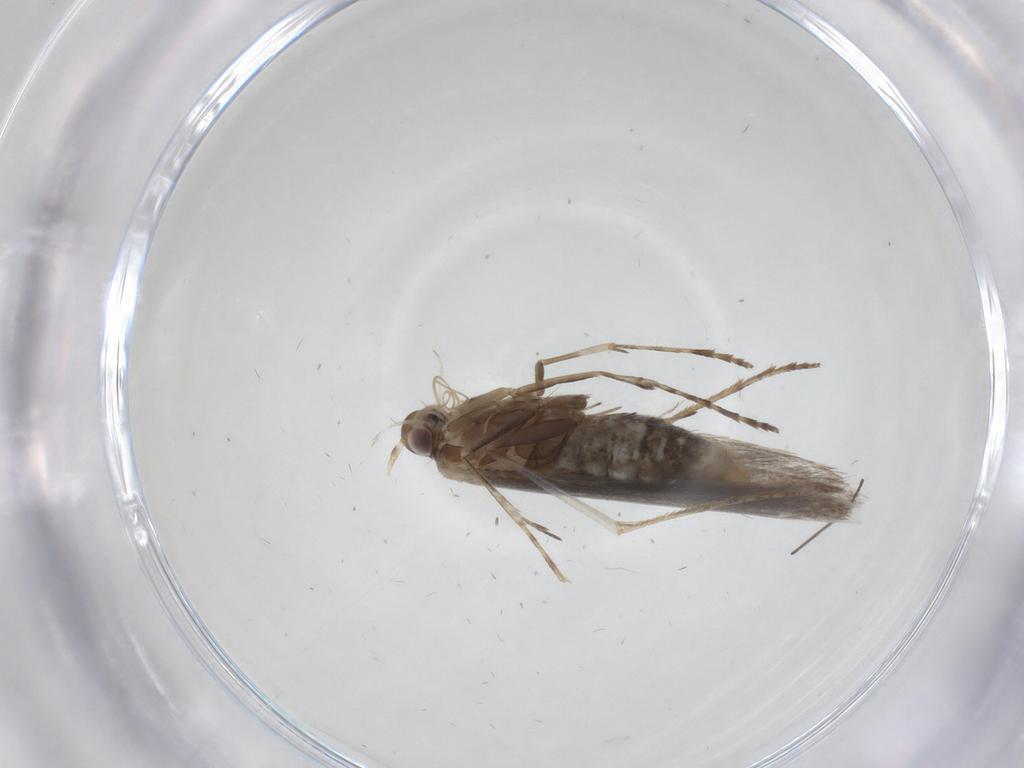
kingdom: Animalia
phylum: Arthropoda
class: Insecta
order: Lepidoptera
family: Gracillariidae
